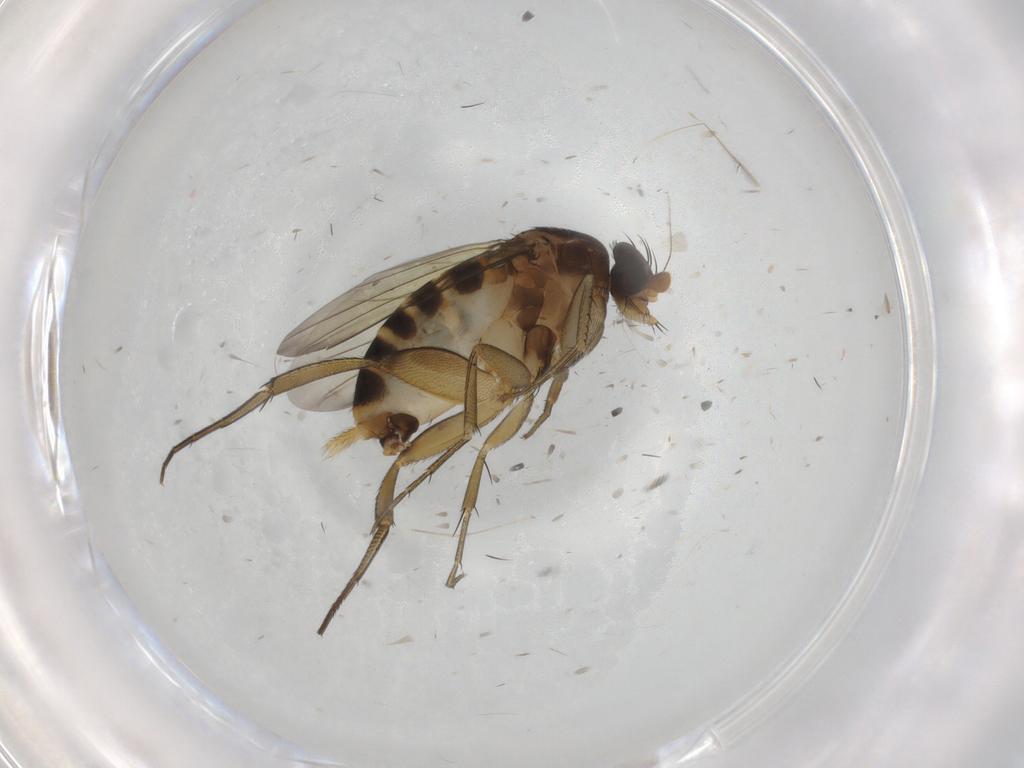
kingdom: Animalia
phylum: Arthropoda
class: Insecta
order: Diptera
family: Phoridae
